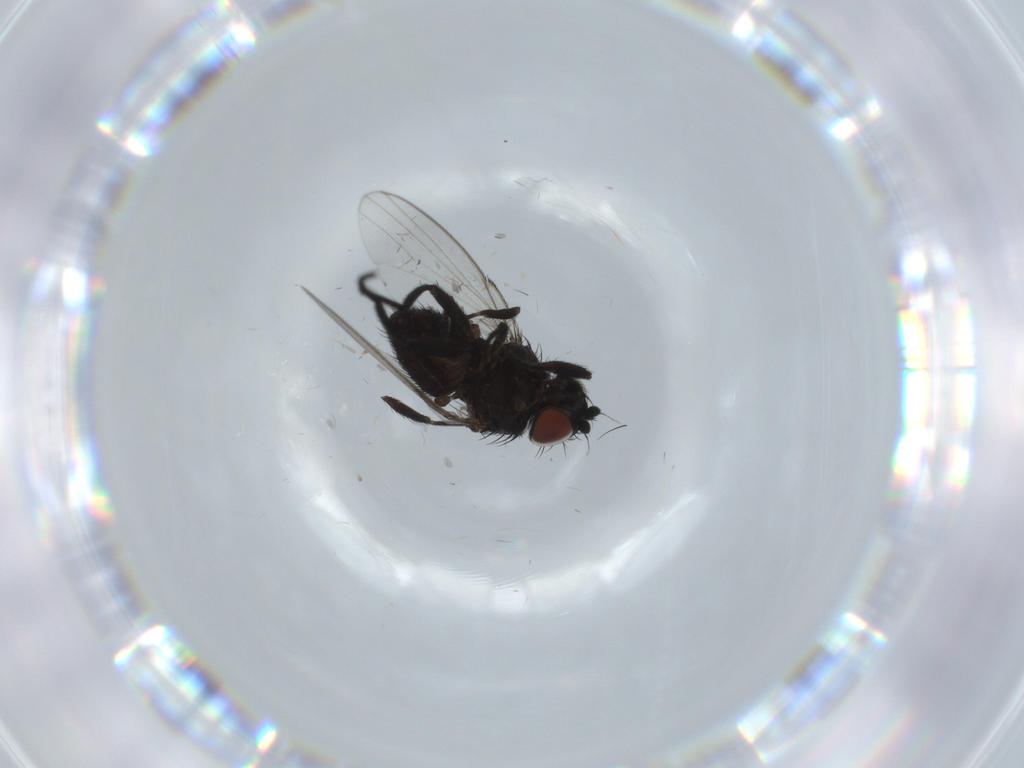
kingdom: Animalia
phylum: Arthropoda
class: Insecta
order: Diptera
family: Milichiidae
